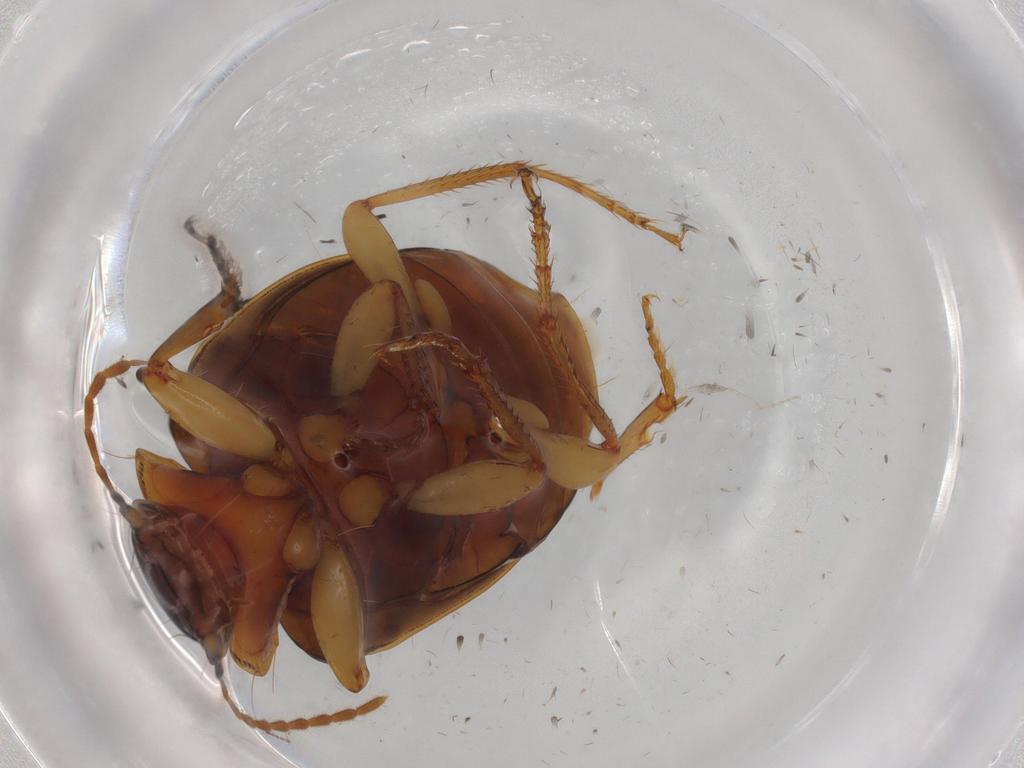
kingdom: Animalia
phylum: Arthropoda
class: Insecta
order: Coleoptera
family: Carabidae
